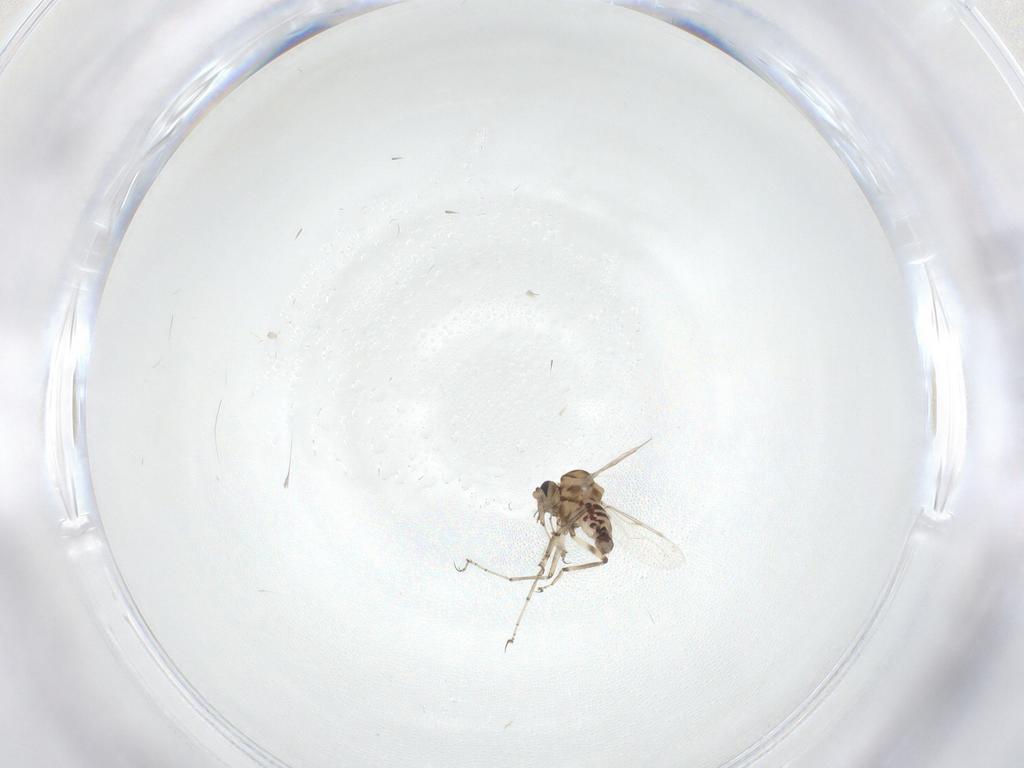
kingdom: Animalia
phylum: Arthropoda
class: Insecta
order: Diptera
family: Ceratopogonidae
